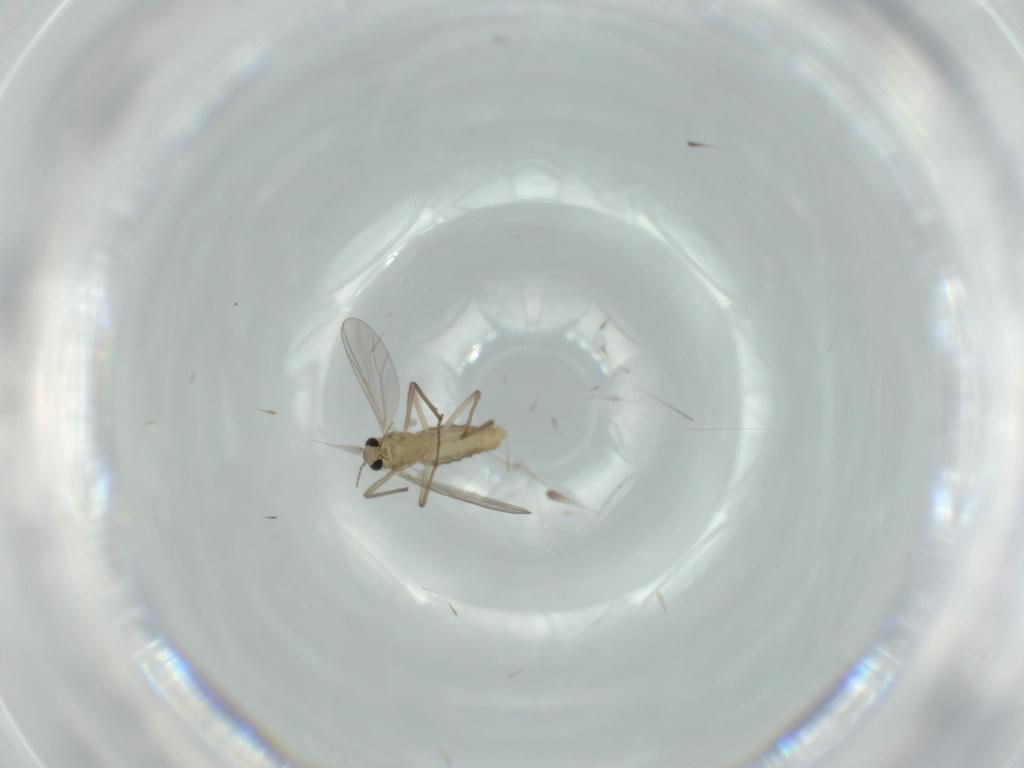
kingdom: Animalia
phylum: Arthropoda
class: Insecta
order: Diptera
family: Chironomidae
